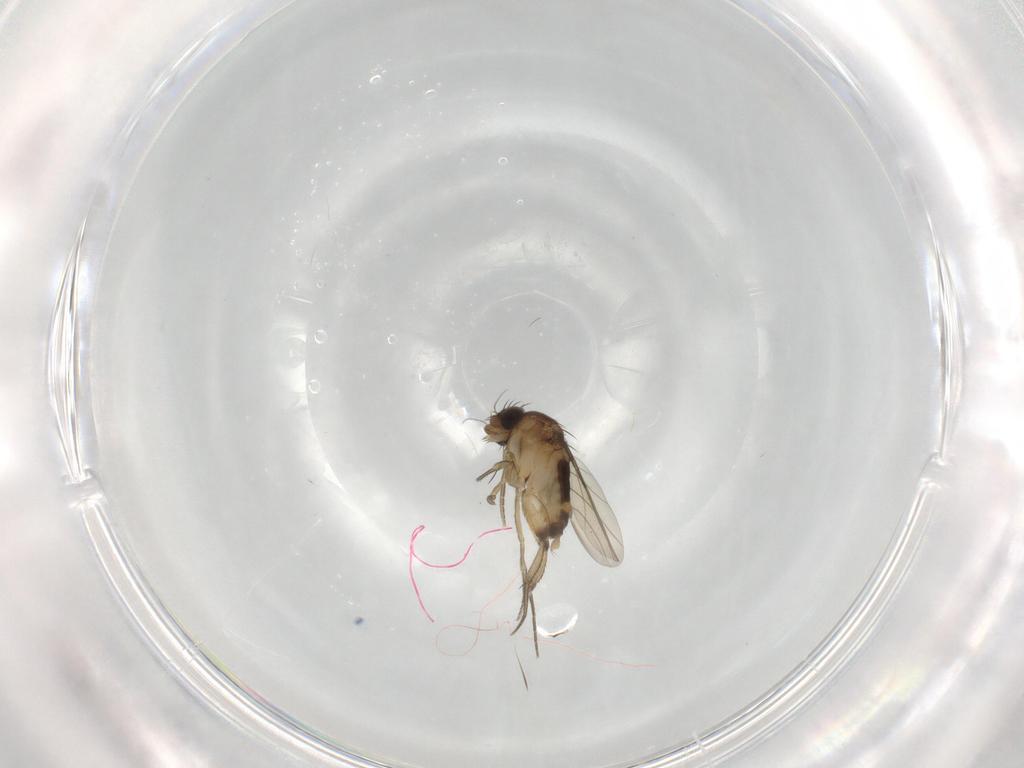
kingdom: Animalia
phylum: Arthropoda
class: Insecta
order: Diptera
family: Phoridae
